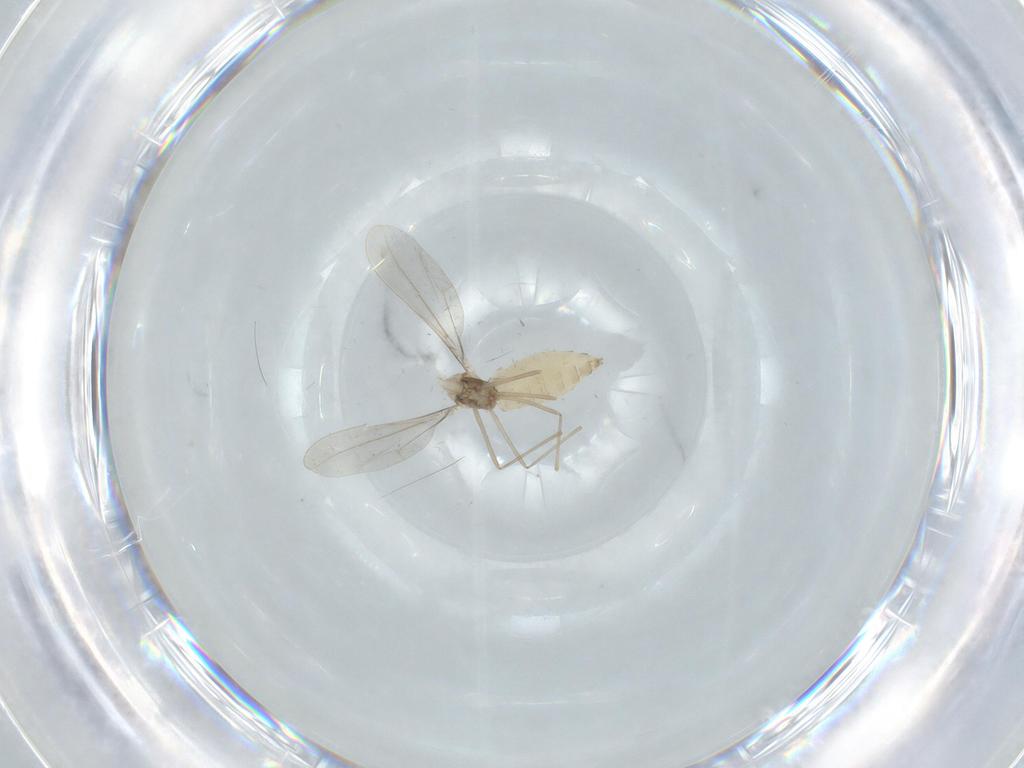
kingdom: Animalia
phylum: Arthropoda
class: Insecta
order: Diptera
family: Cecidomyiidae
